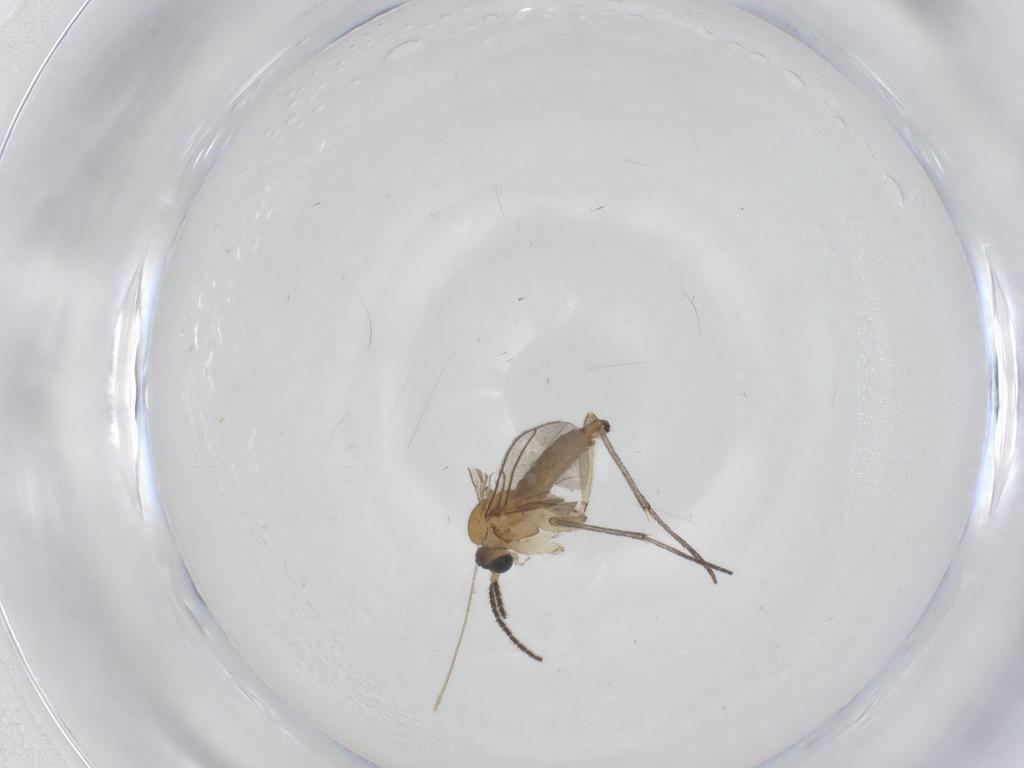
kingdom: Animalia
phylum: Arthropoda
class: Insecta
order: Diptera
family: Sciaridae
